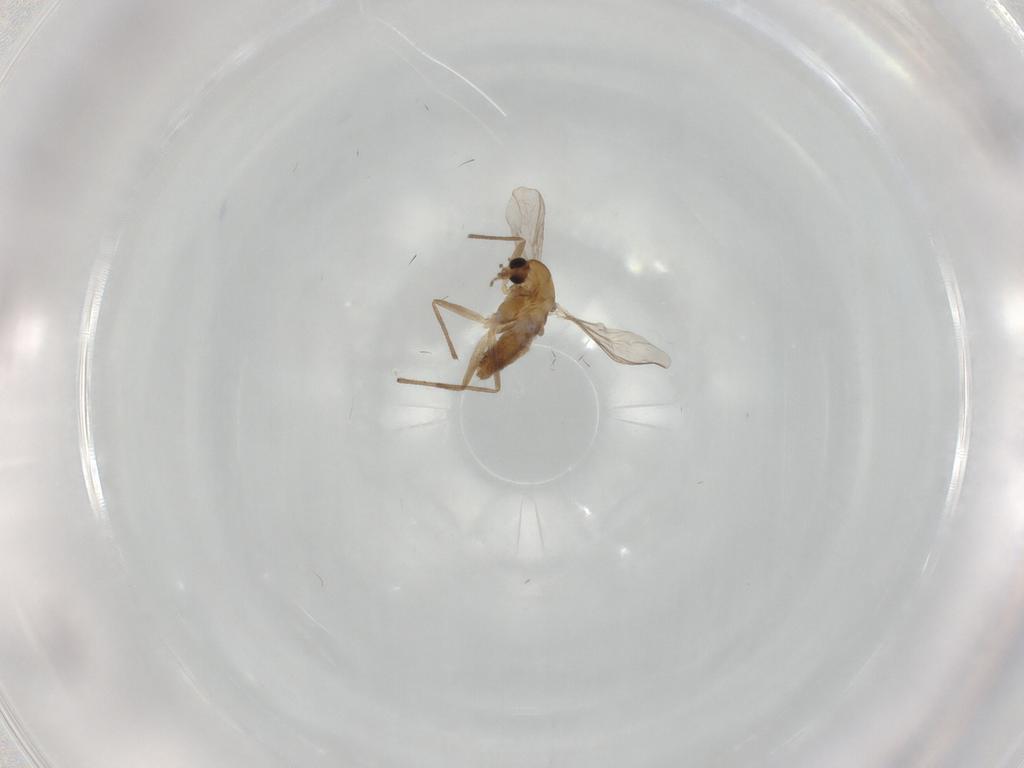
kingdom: Animalia
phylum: Arthropoda
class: Insecta
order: Diptera
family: Chironomidae
